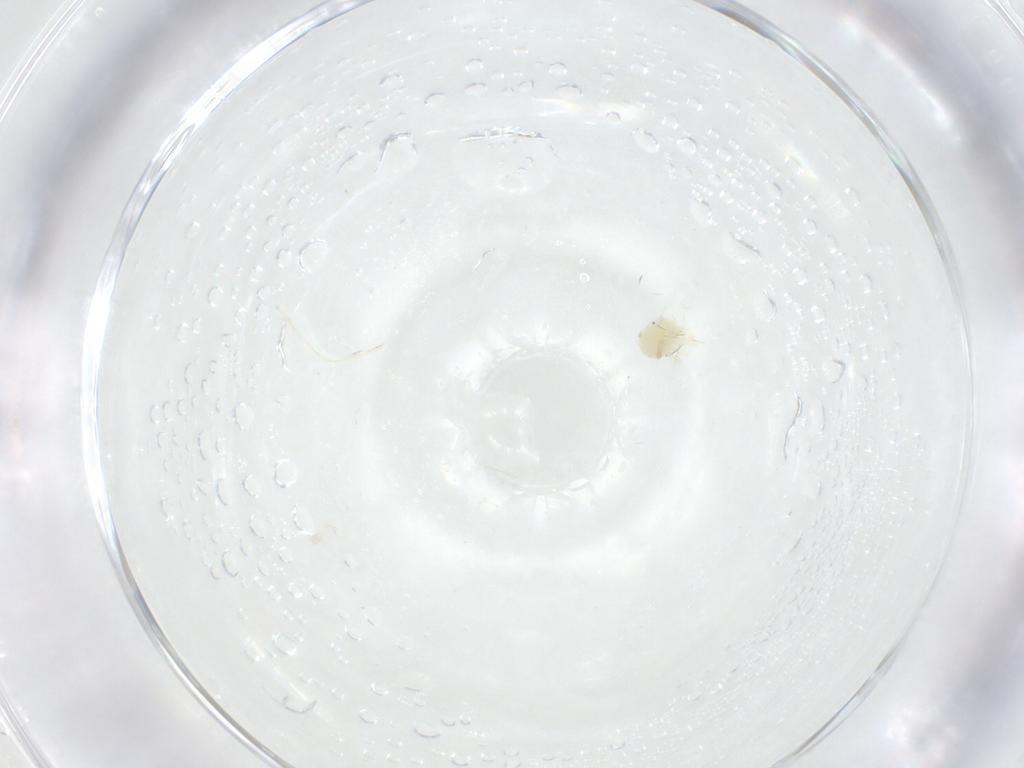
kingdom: Animalia
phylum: Arthropoda
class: Arachnida
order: Trombidiformes
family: Anystidae
